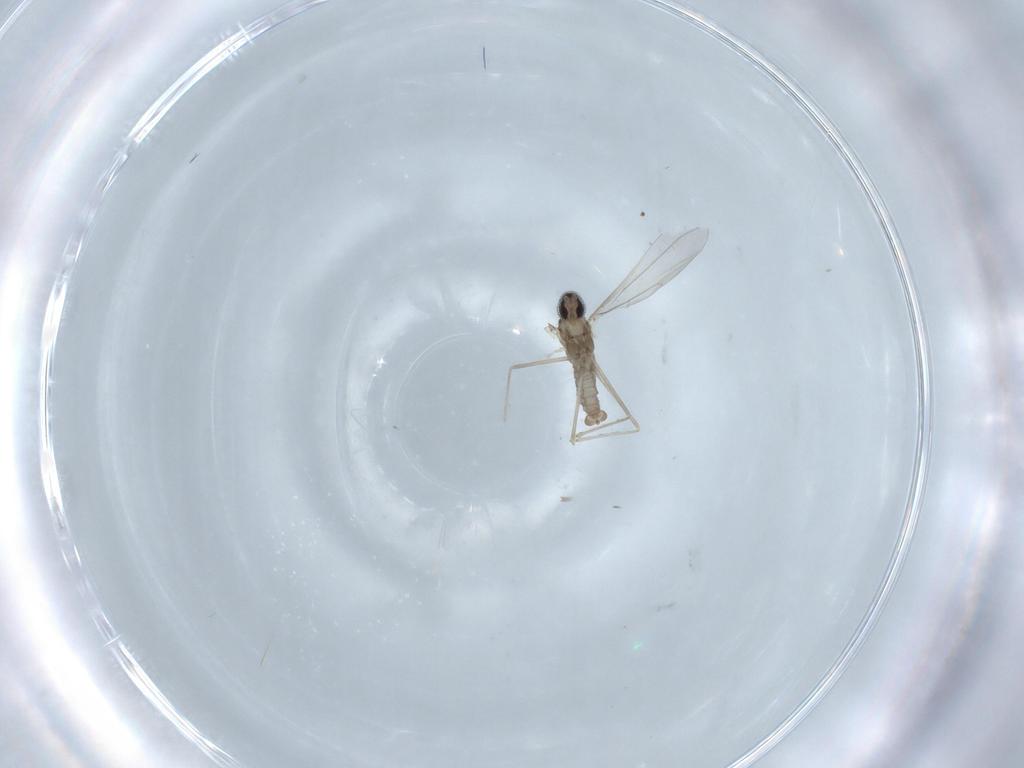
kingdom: Animalia
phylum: Arthropoda
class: Insecta
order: Diptera
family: Cecidomyiidae
